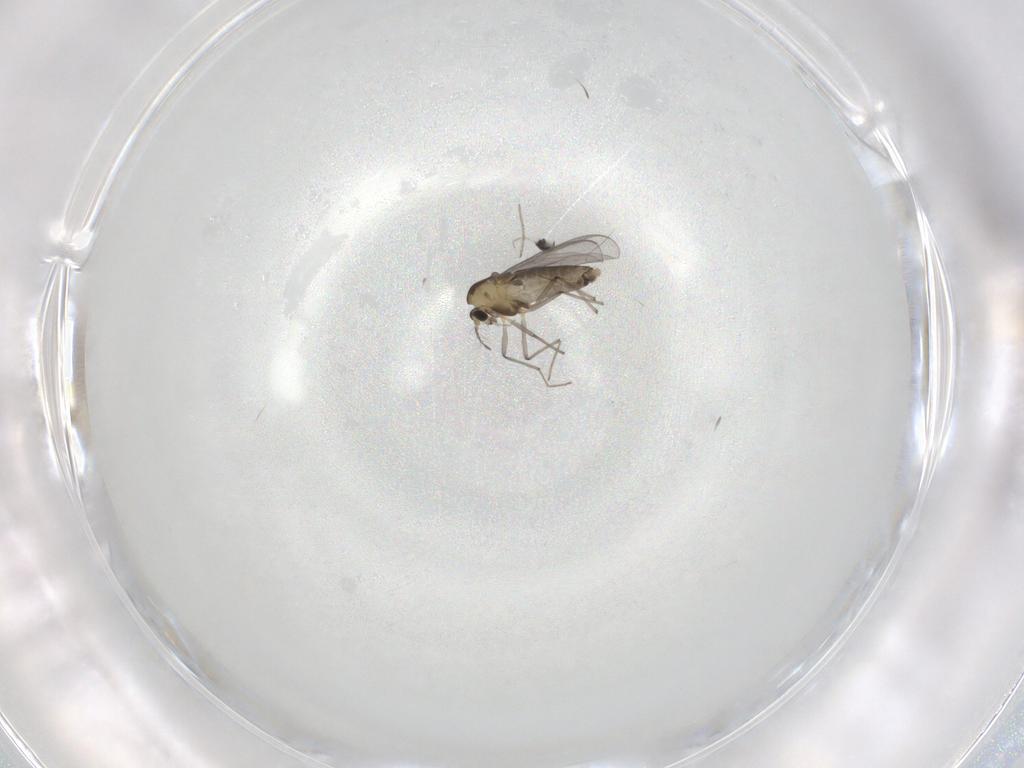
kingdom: Animalia
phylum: Arthropoda
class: Insecta
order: Diptera
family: Chironomidae
